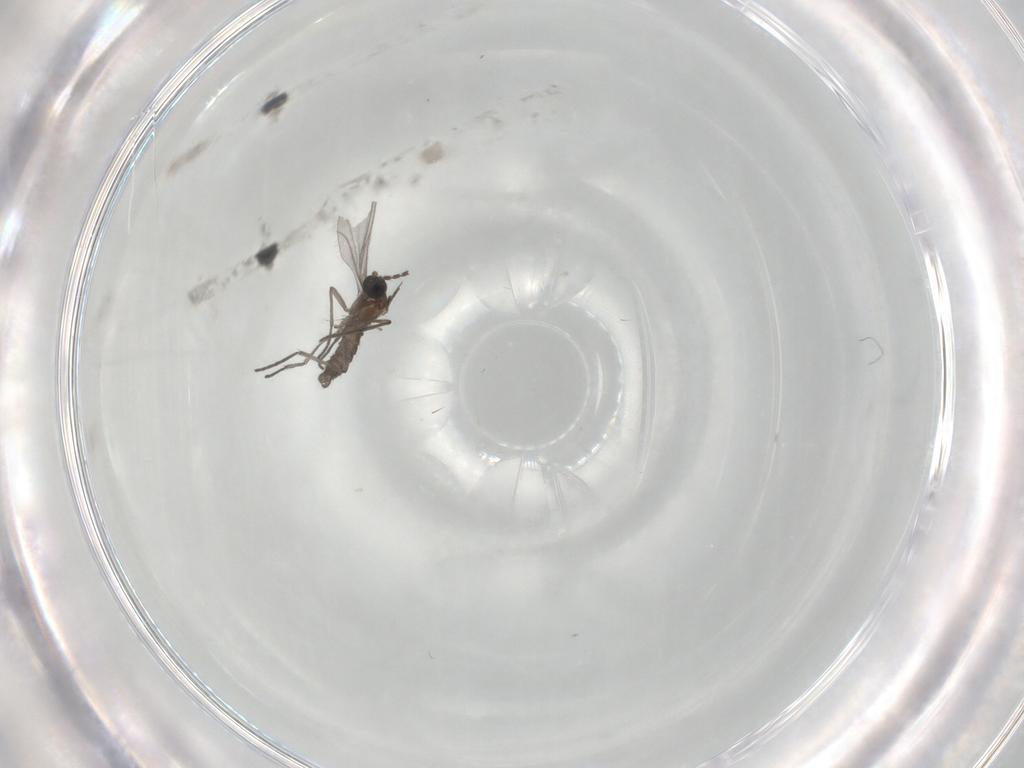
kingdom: Animalia
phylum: Arthropoda
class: Insecta
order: Diptera
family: Sciaridae
